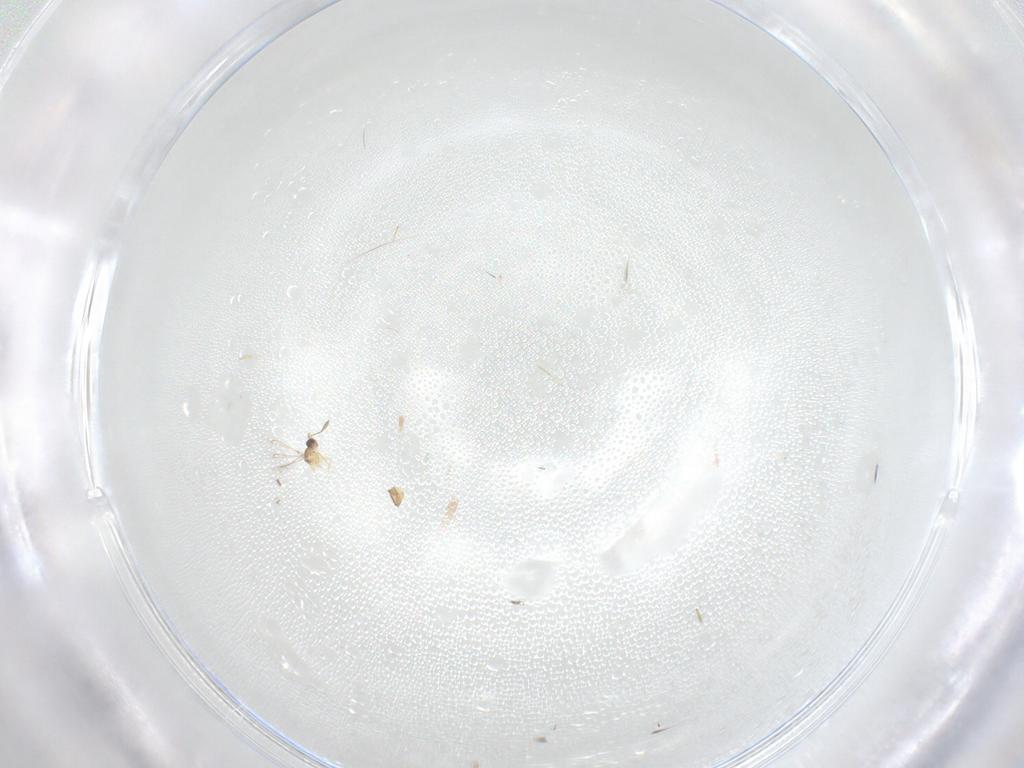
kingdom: Animalia
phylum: Arthropoda
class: Insecta
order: Hymenoptera
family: Mymaridae
